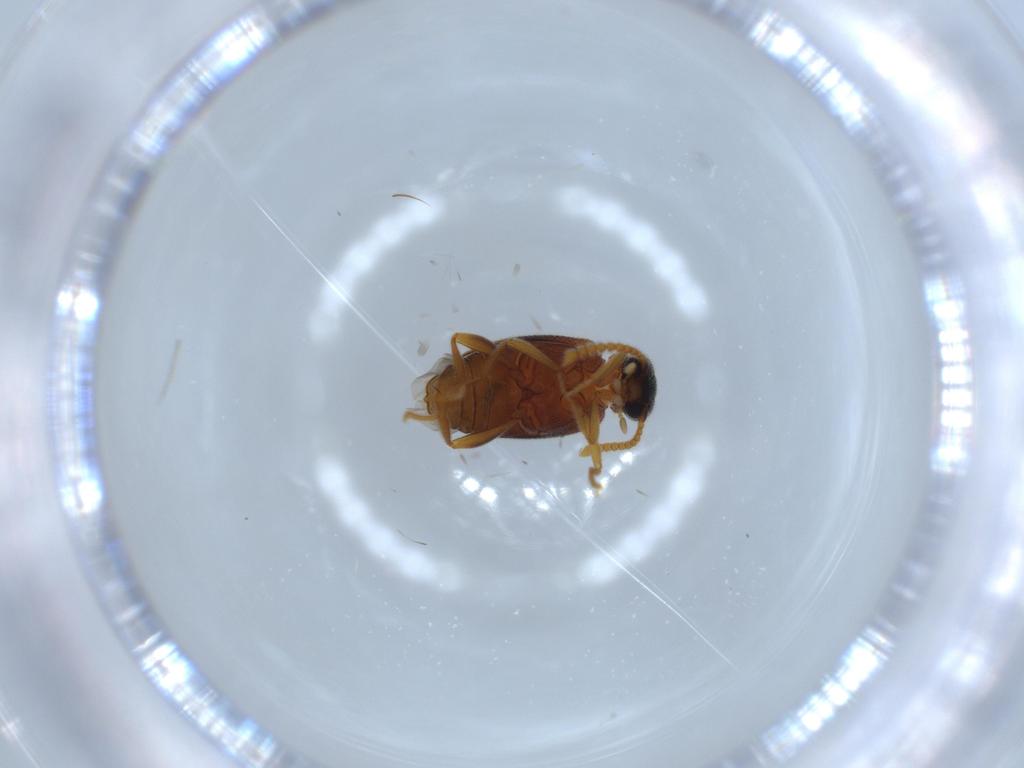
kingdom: Animalia
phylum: Arthropoda
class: Insecta
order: Coleoptera
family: Aderidae
